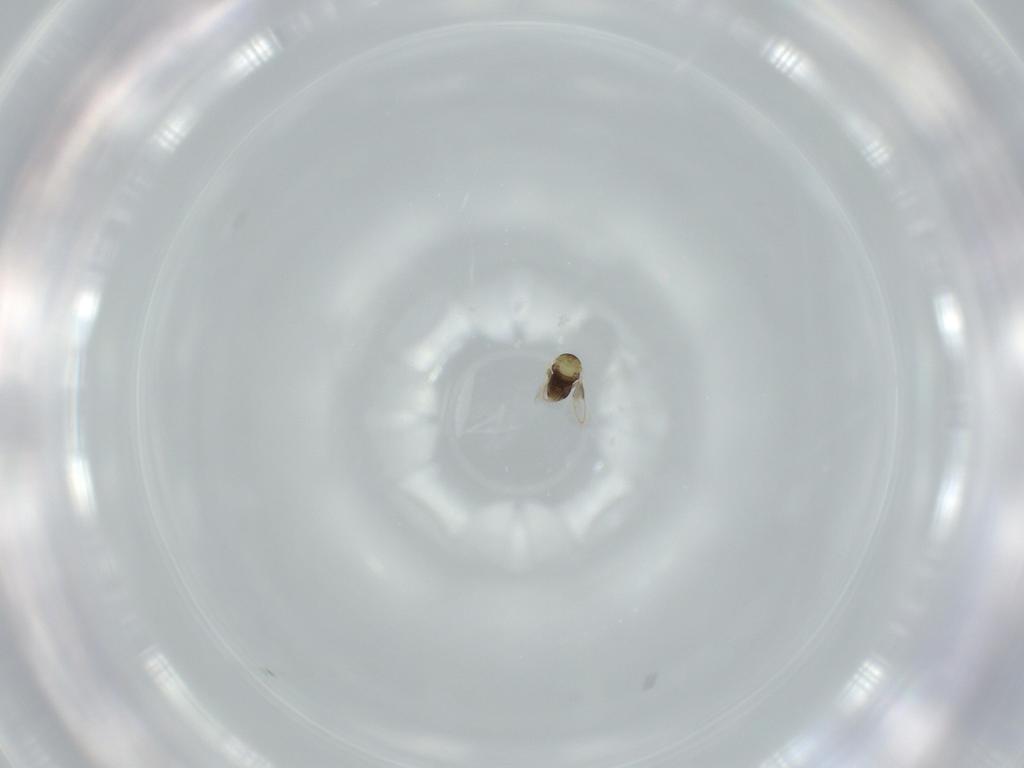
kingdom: Animalia
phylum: Arthropoda
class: Insecta
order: Hymenoptera
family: Aphelinidae
